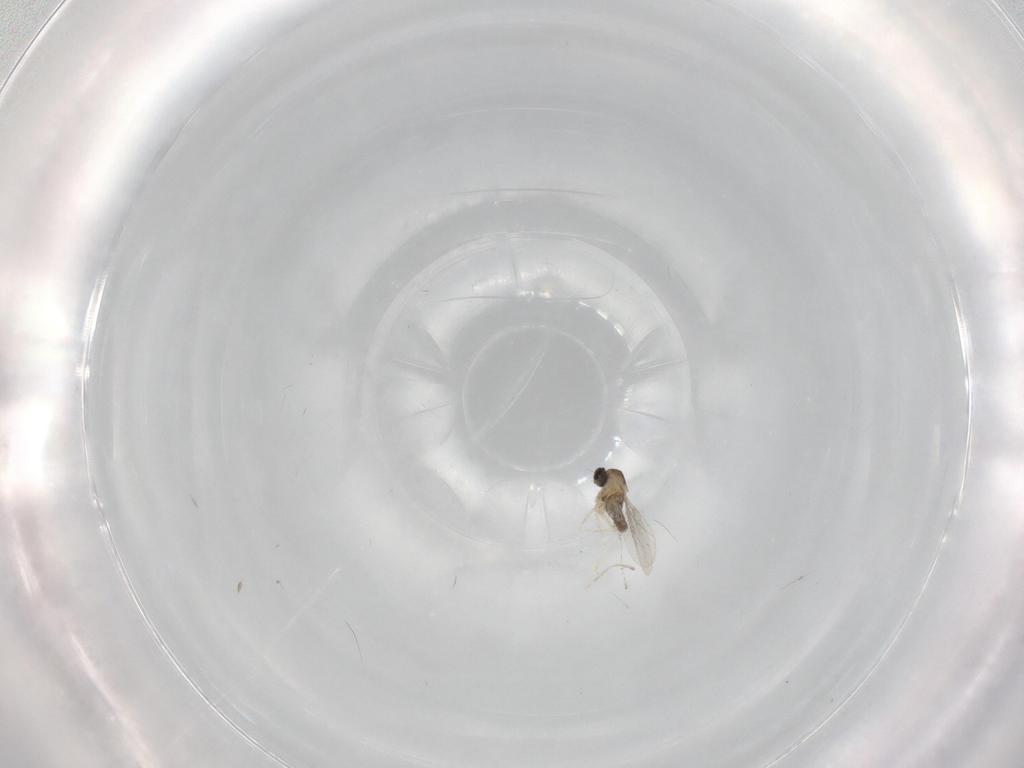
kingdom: Animalia
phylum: Arthropoda
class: Insecta
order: Diptera
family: Cecidomyiidae
